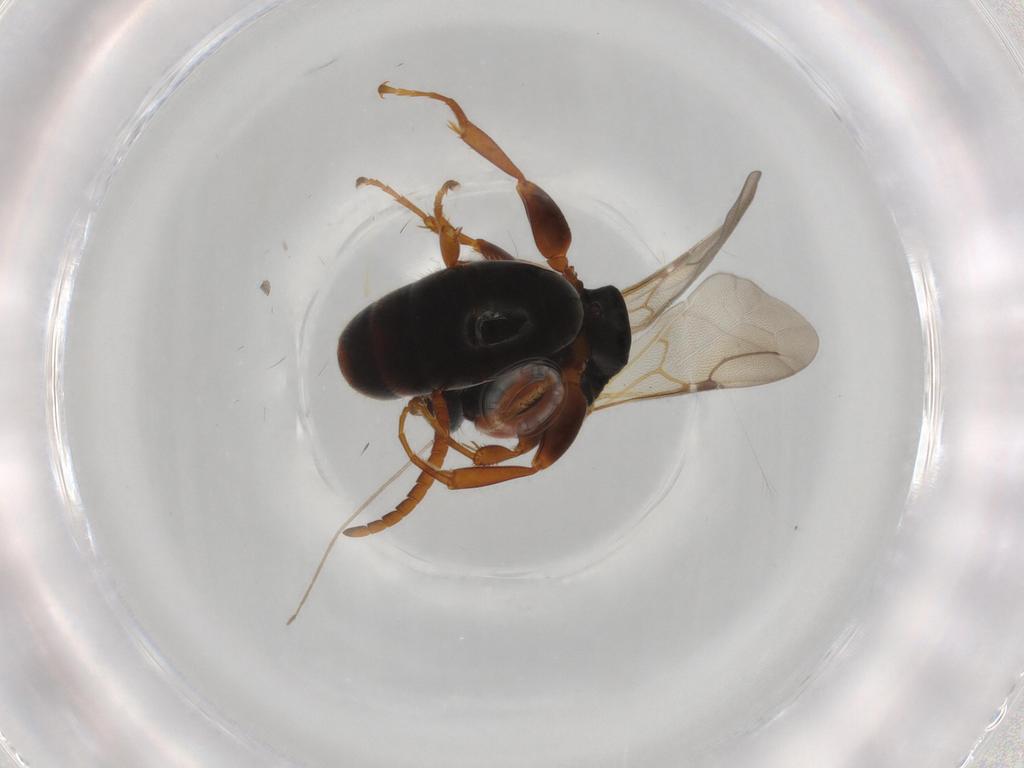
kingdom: Animalia
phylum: Arthropoda
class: Insecta
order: Hymenoptera
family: Bethylidae
